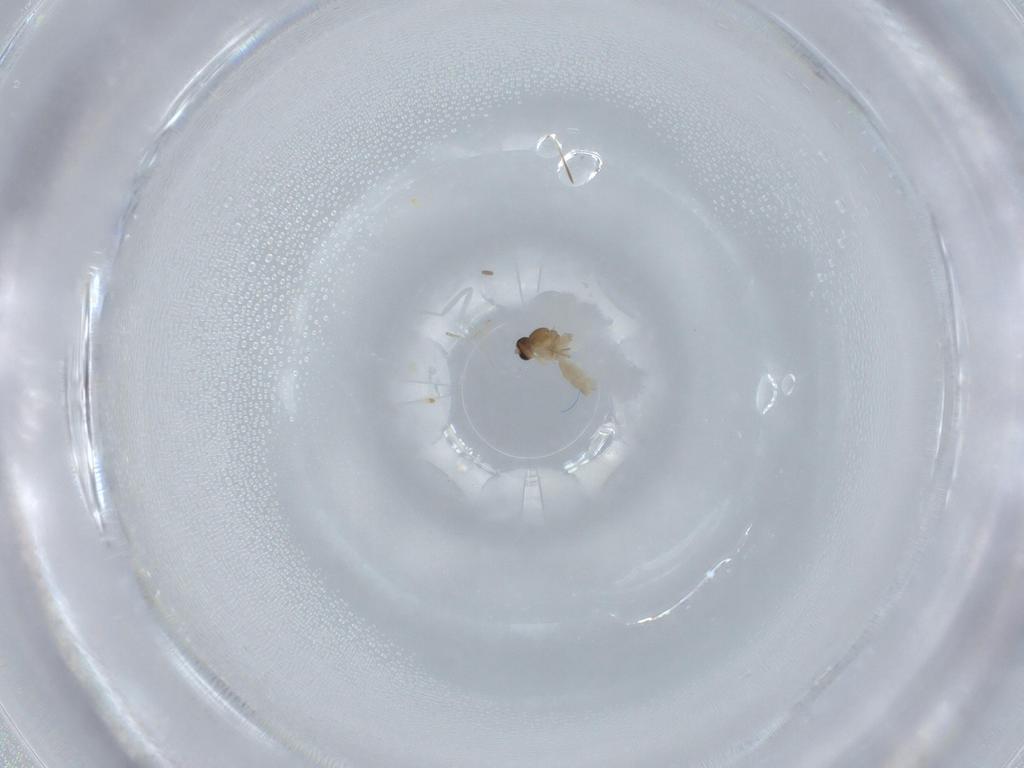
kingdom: Animalia
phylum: Arthropoda
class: Insecta
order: Diptera
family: Cecidomyiidae
